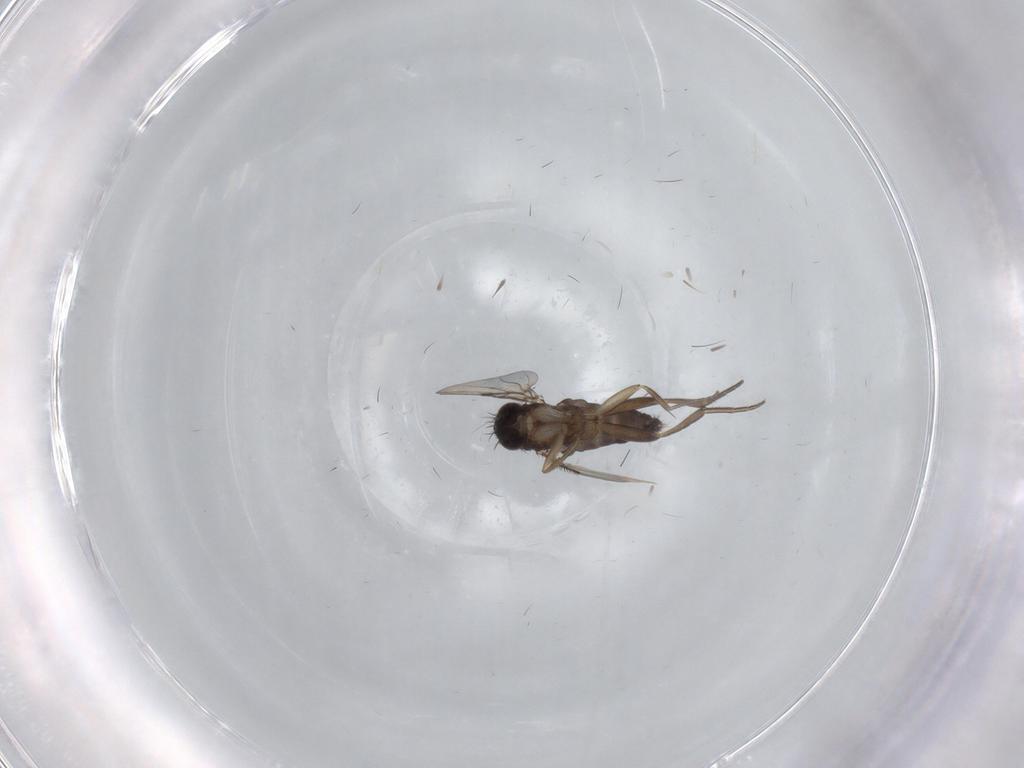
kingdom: Animalia
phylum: Arthropoda
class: Insecta
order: Diptera
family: Phoridae
